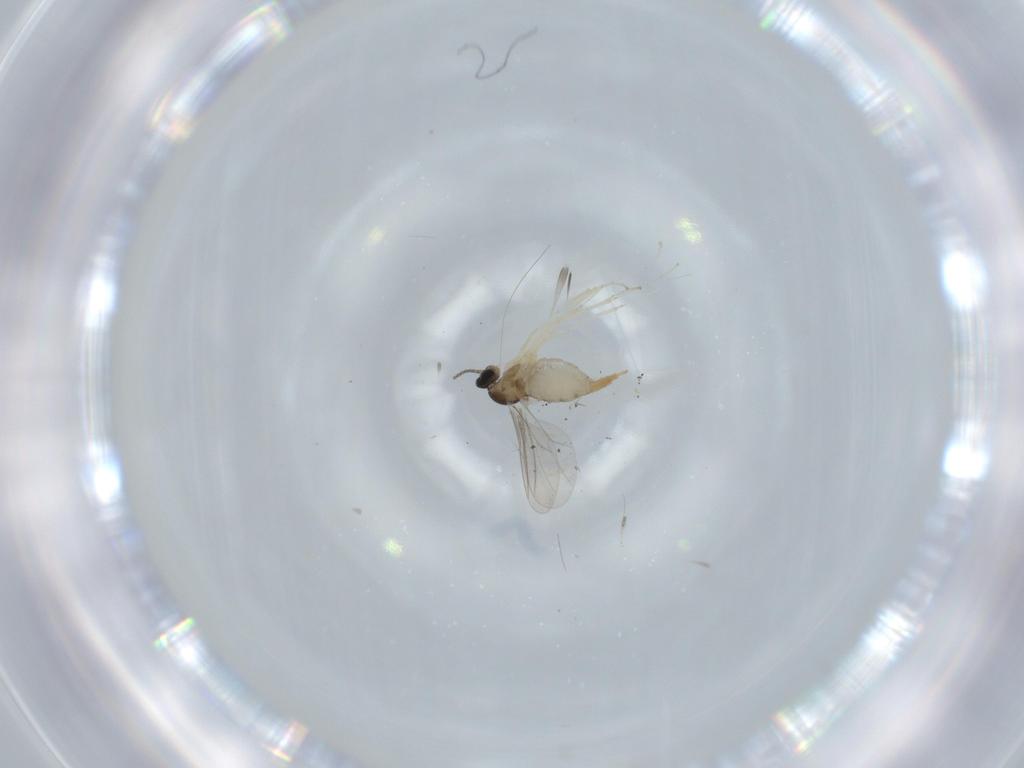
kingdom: Animalia
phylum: Arthropoda
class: Insecta
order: Diptera
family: Cecidomyiidae
